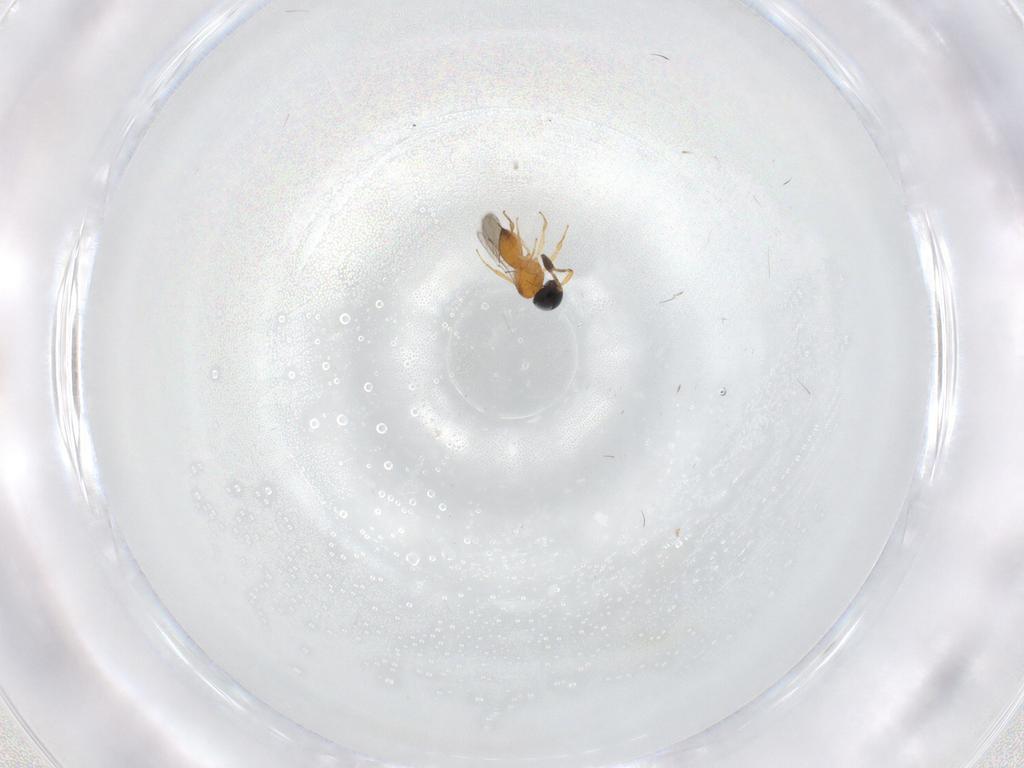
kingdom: Animalia
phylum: Arthropoda
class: Insecta
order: Hymenoptera
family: Scelionidae
